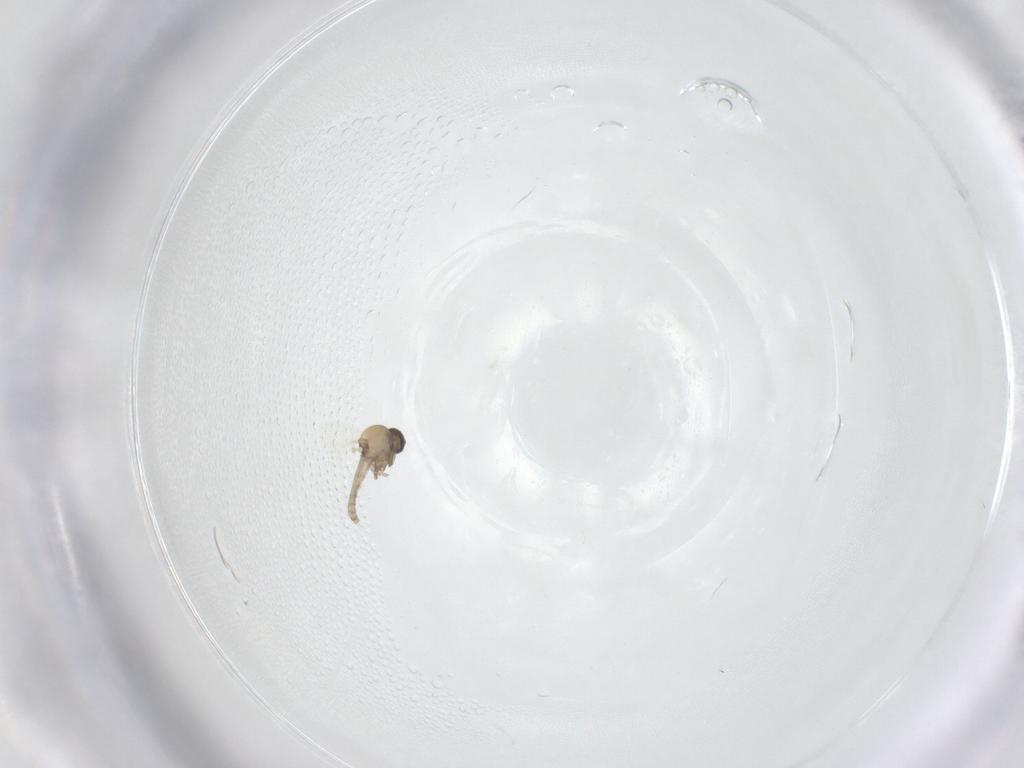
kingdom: Animalia
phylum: Arthropoda
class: Insecta
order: Diptera
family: Ceratopogonidae
